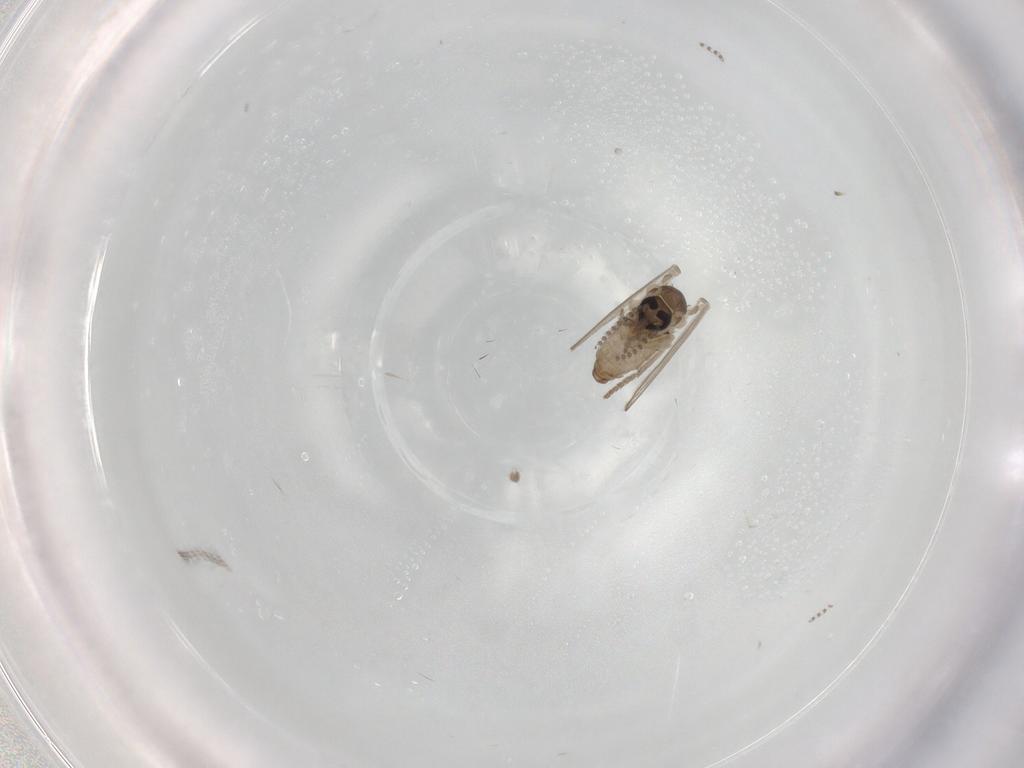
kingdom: Animalia
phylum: Arthropoda
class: Insecta
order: Diptera
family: Psychodidae
